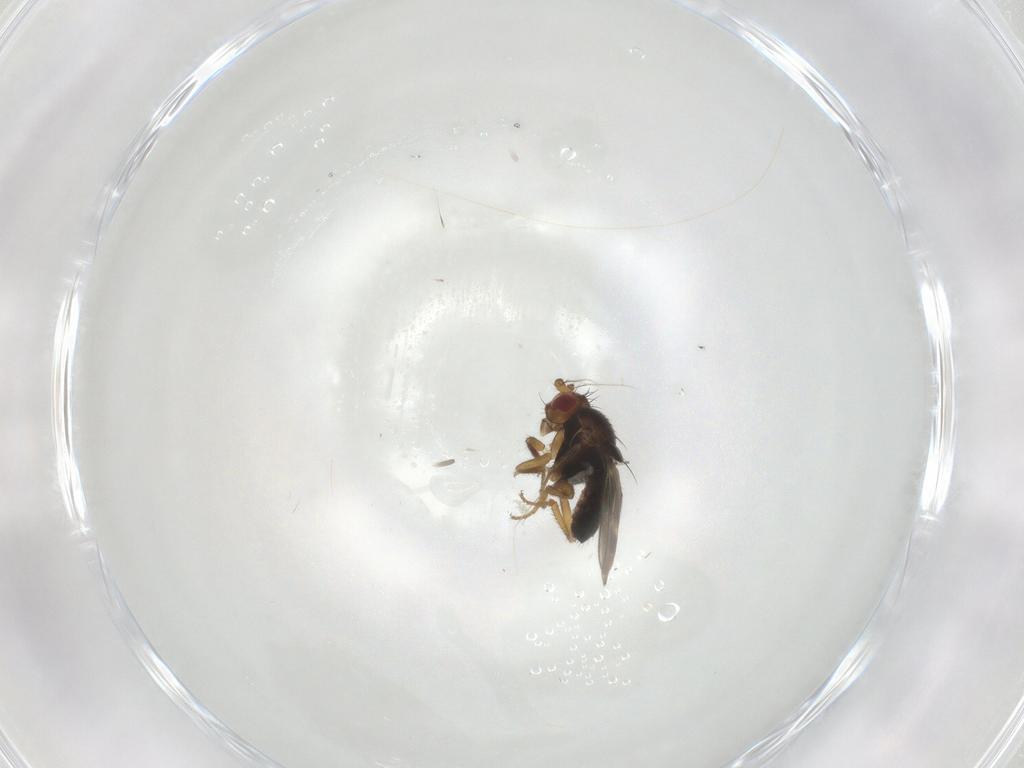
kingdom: Animalia
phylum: Arthropoda
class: Insecta
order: Diptera
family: Sphaeroceridae
